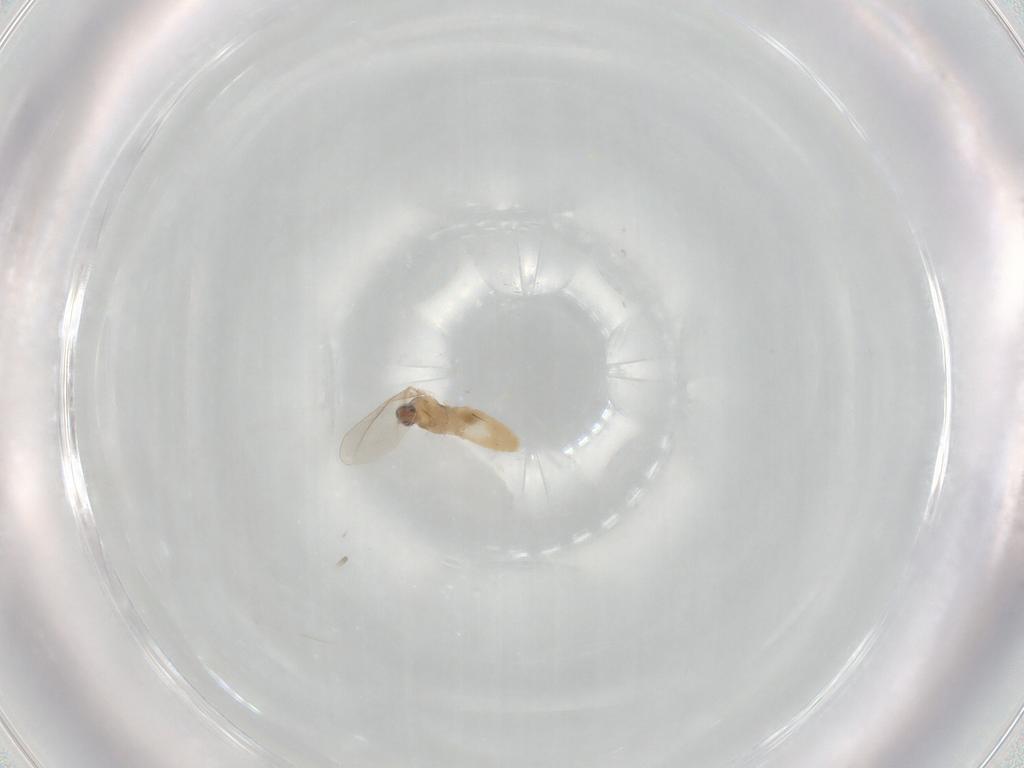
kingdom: Animalia
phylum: Arthropoda
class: Insecta
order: Diptera
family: Cecidomyiidae
